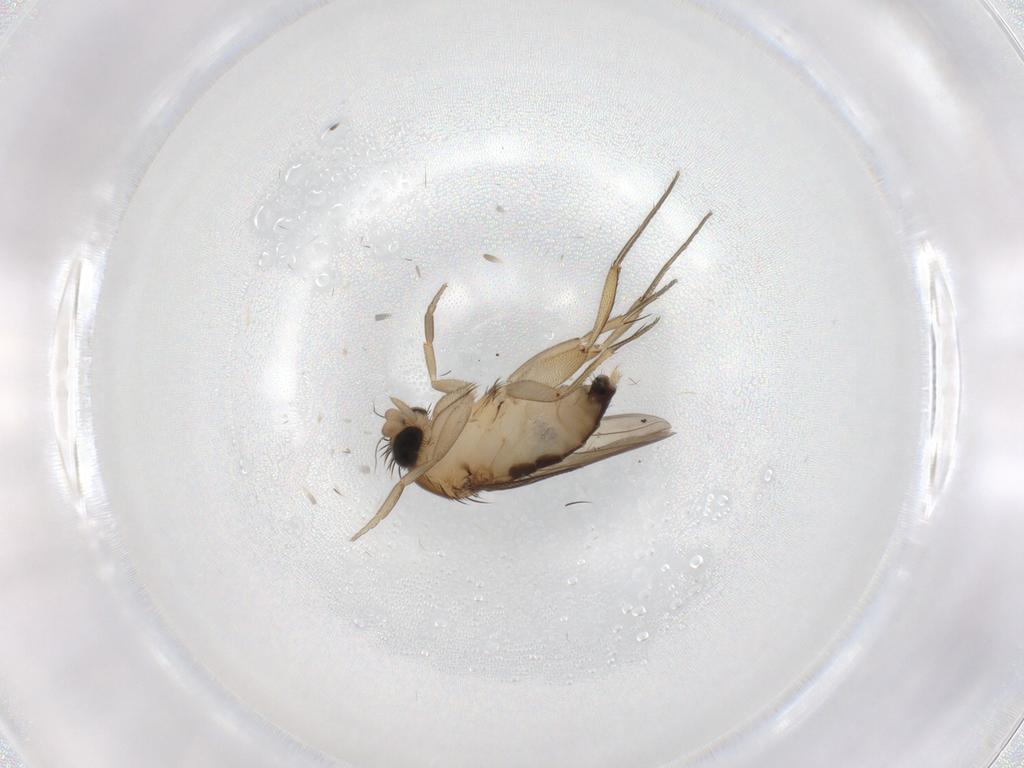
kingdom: Animalia
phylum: Arthropoda
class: Insecta
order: Diptera
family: Phoridae
